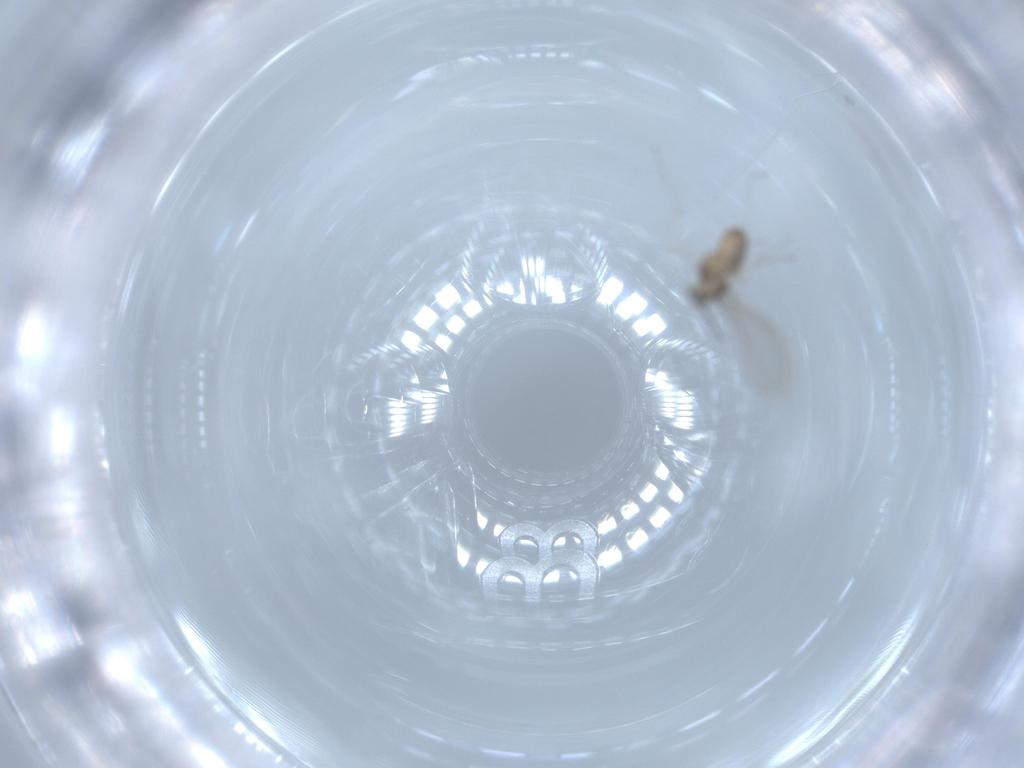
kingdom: Animalia
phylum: Arthropoda
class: Insecta
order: Diptera
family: Cecidomyiidae
